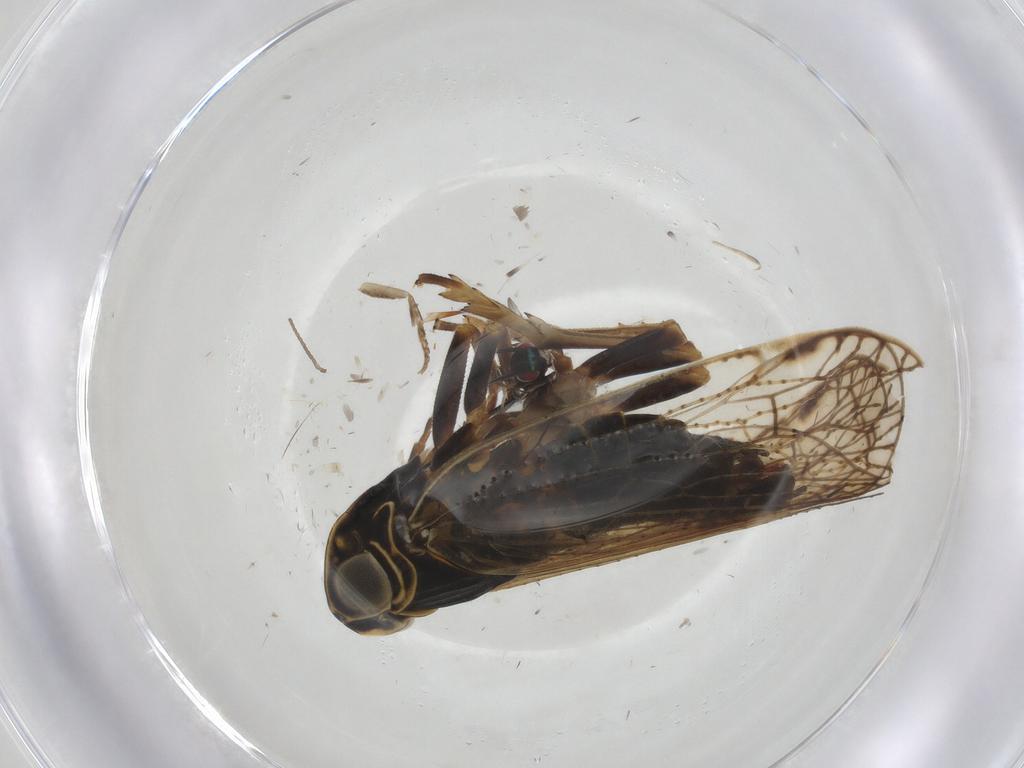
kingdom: Animalia
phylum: Arthropoda
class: Insecta
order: Hemiptera
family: Cixiidae
